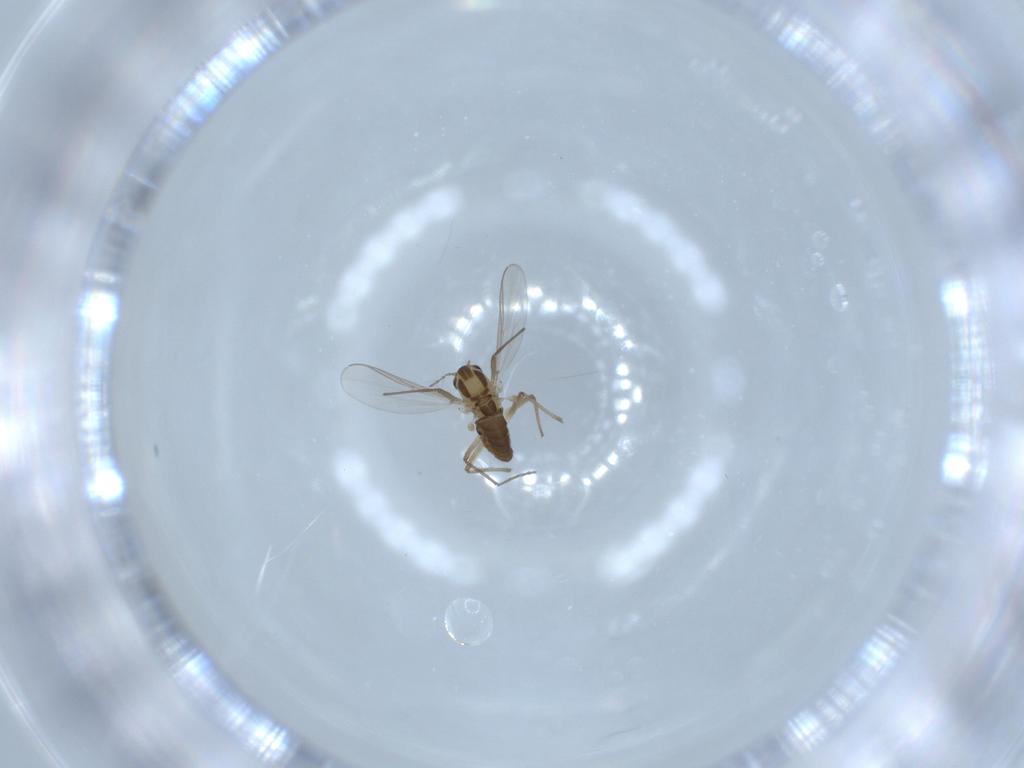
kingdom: Animalia
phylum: Arthropoda
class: Insecta
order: Diptera
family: Chironomidae
